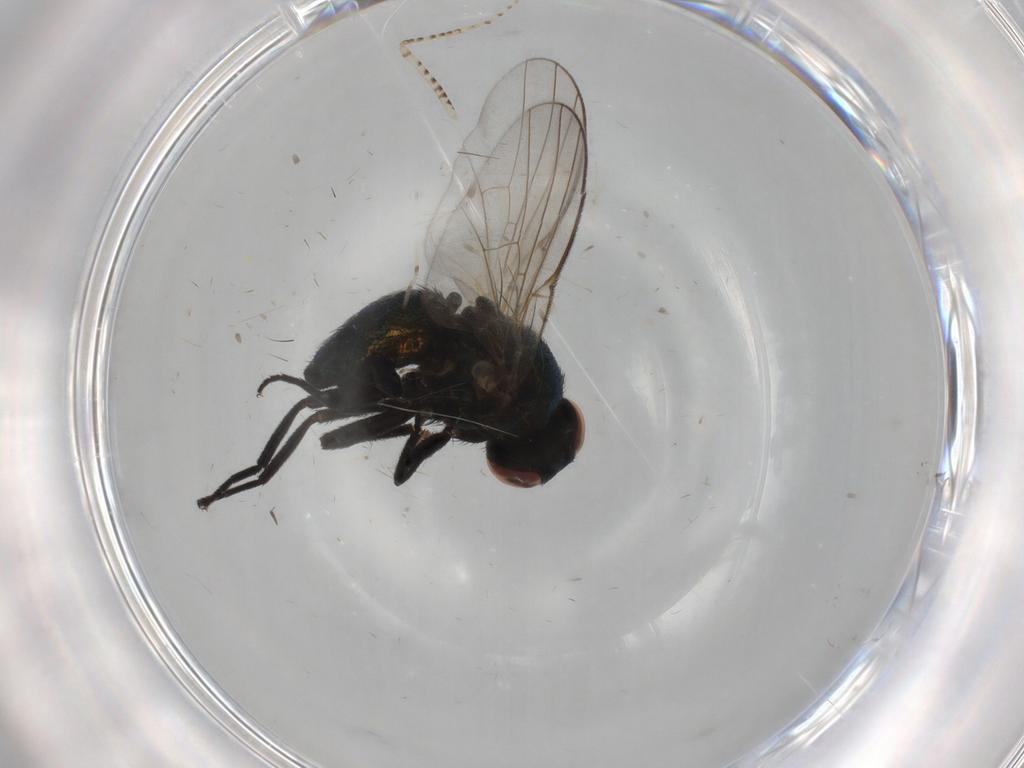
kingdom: Animalia
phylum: Arthropoda
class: Insecta
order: Diptera
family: Agromyzidae
